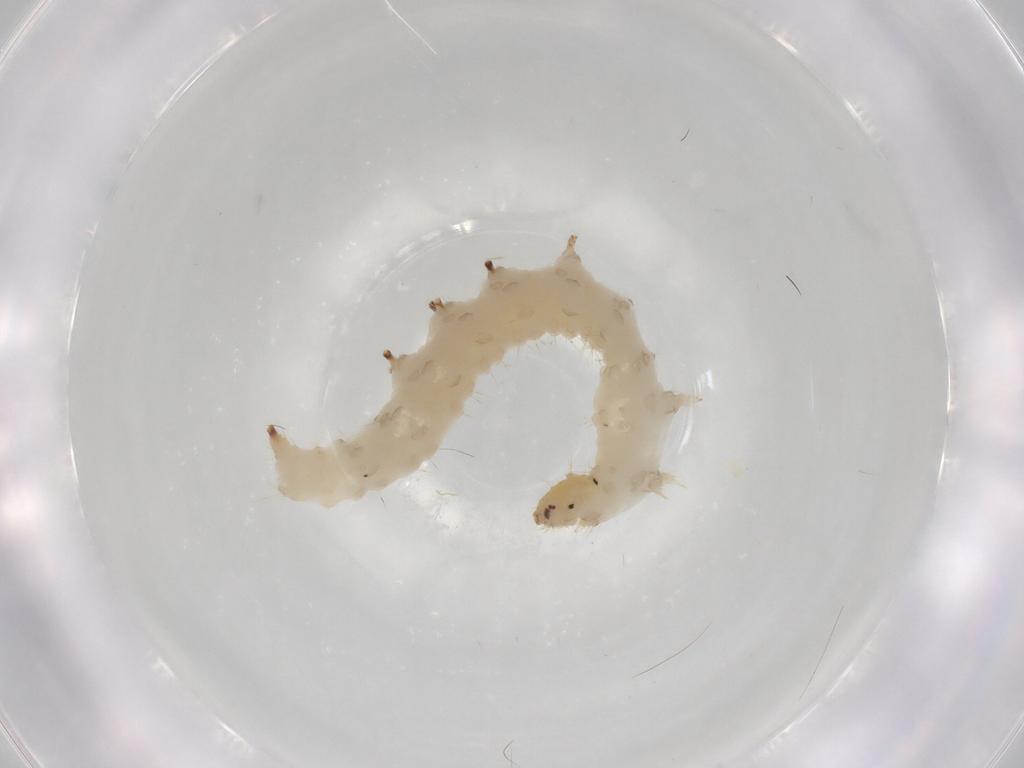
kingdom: Animalia
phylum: Arthropoda
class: Insecta
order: Lepidoptera
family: Crambidae
